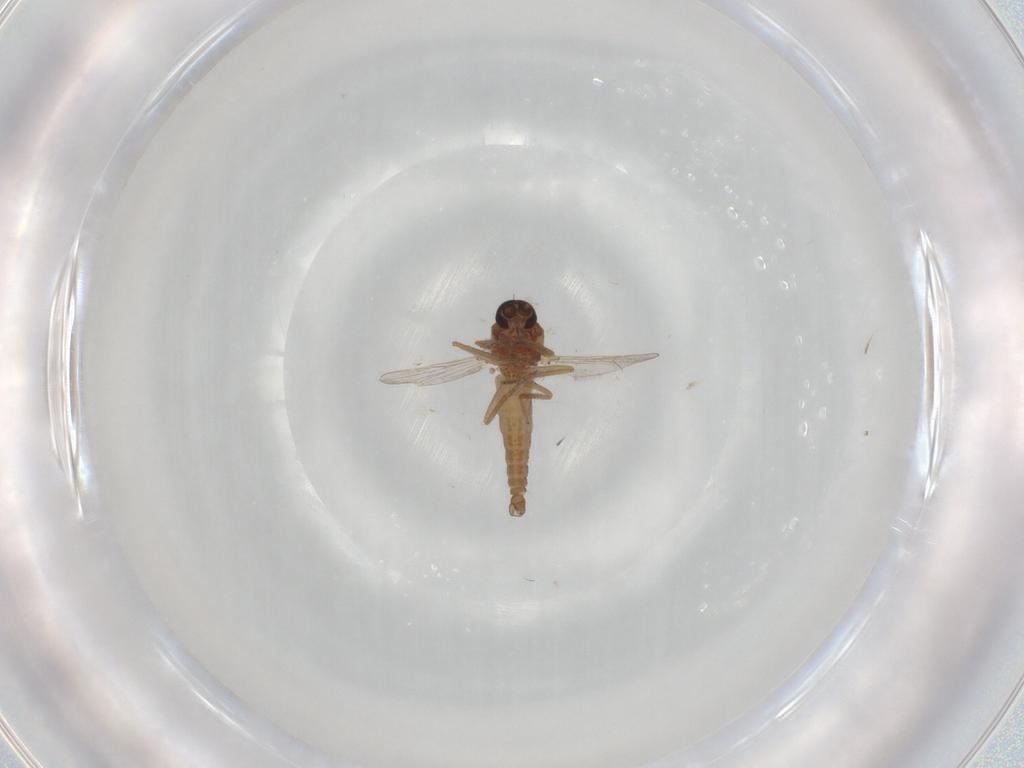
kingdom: Animalia
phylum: Arthropoda
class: Insecta
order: Diptera
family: Ceratopogonidae
